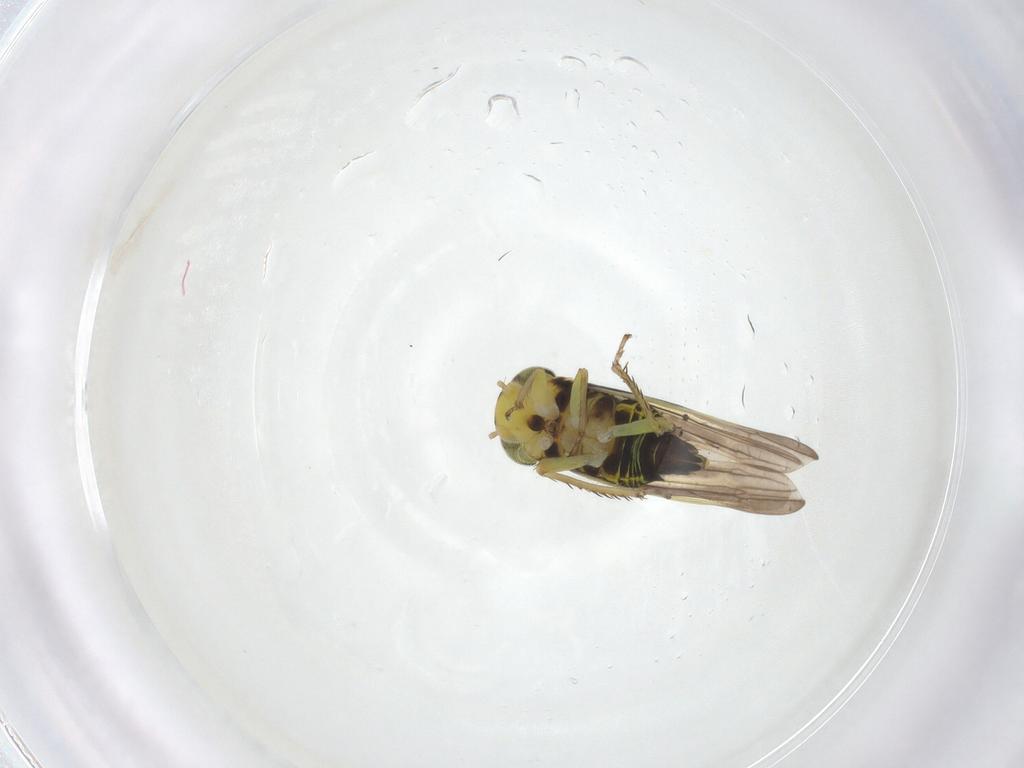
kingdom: Animalia
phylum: Arthropoda
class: Insecta
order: Hemiptera
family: Cicadellidae
